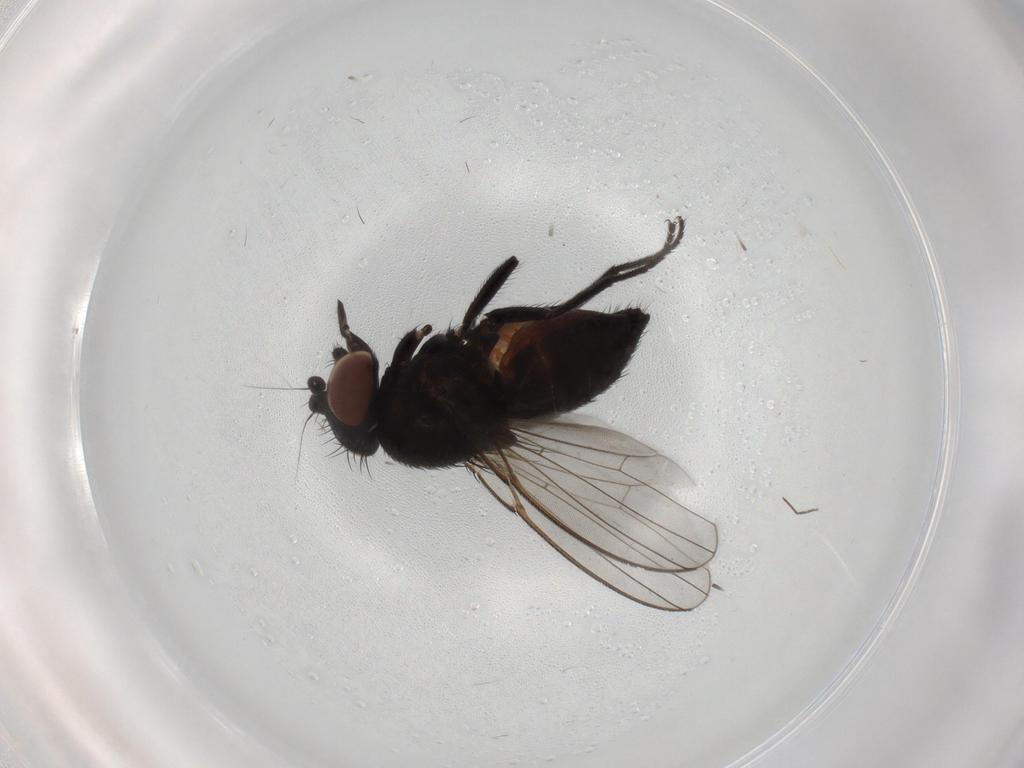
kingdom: Animalia
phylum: Arthropoda
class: Insecta
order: Diptera
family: Milichiidae
